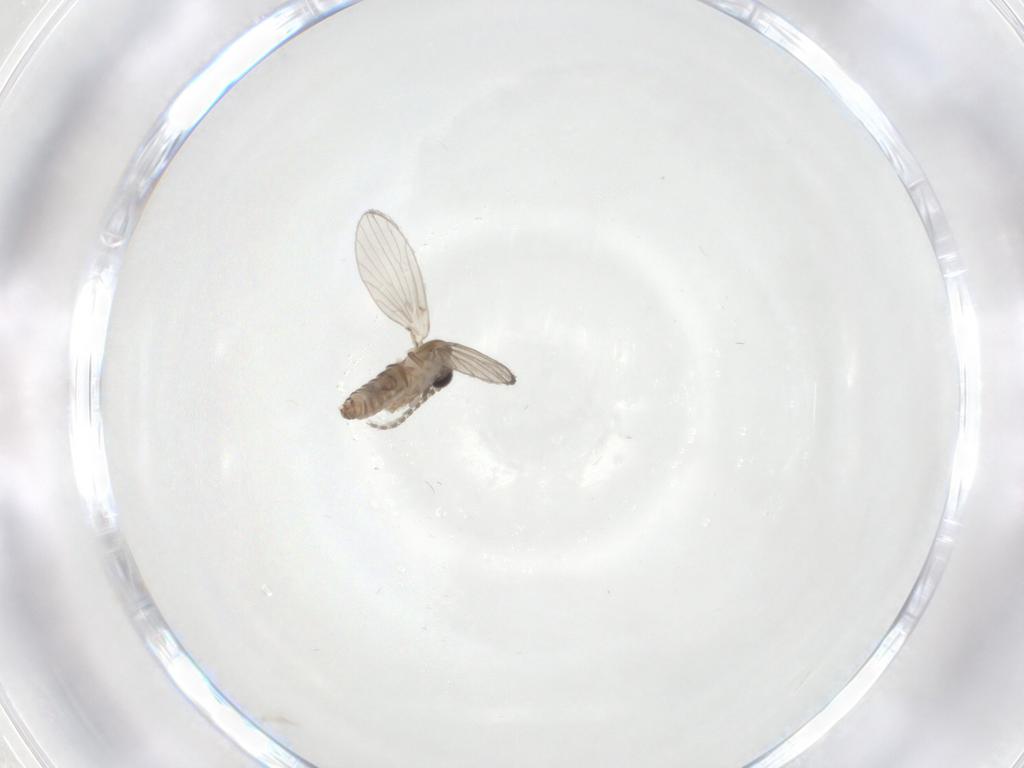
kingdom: Animalia
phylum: Arthropoda
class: Insecta
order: Diptera
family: Psychodidae
